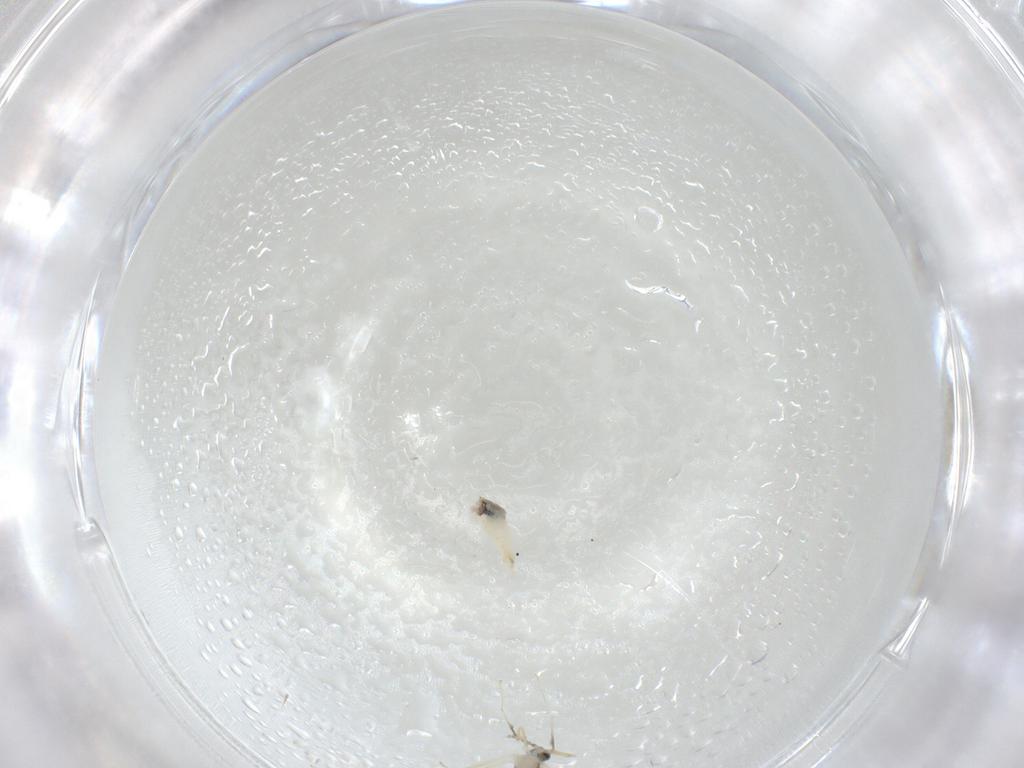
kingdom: Animalia
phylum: Arthropoda
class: Insecta
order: Diptera
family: Cecidomyiidae
